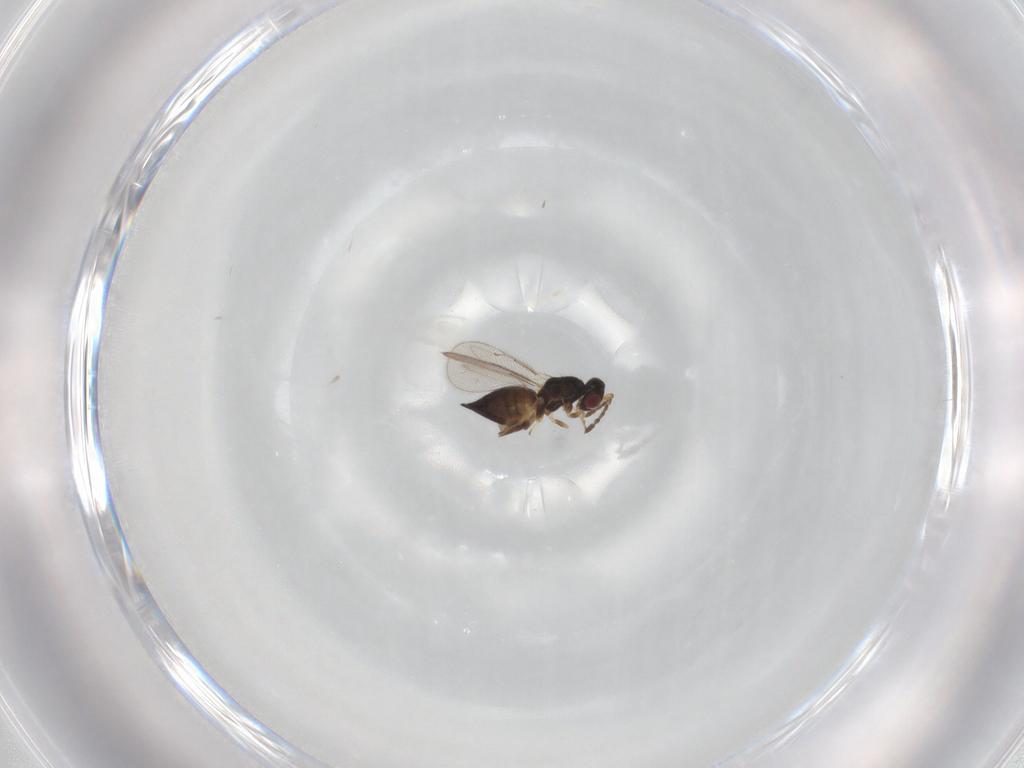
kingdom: Animalia
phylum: Arthropoda
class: Insecta
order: Hymenoptera
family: Eulophidae
